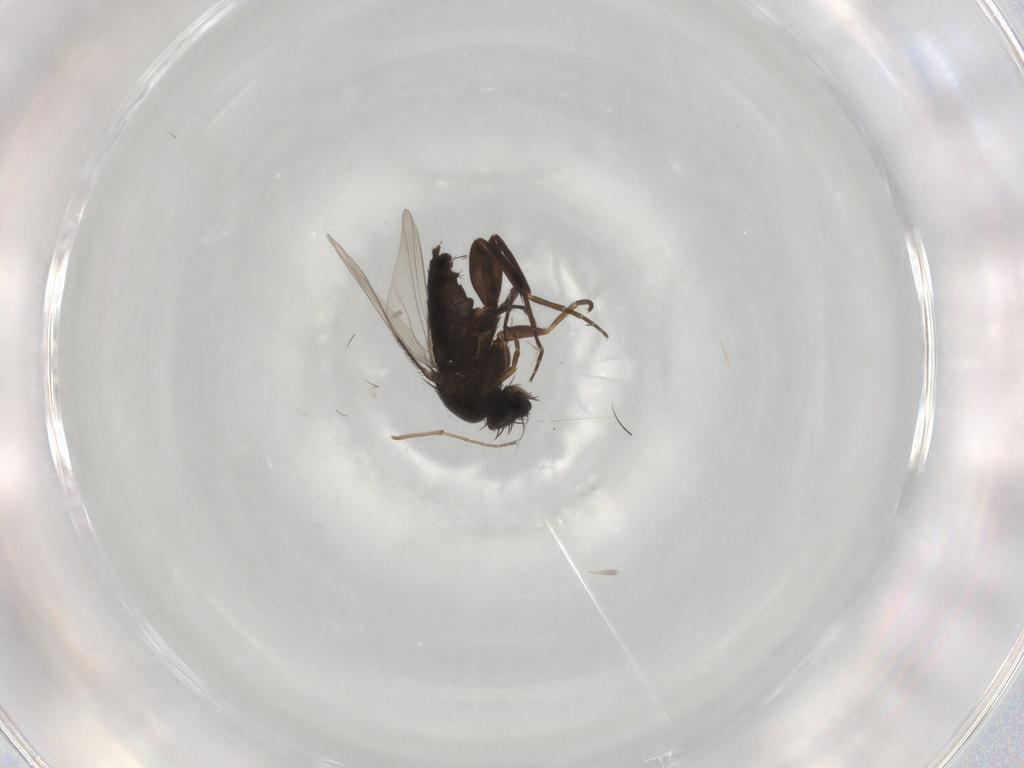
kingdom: Animalia
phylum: Arthropoda
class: Insecta
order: Diptera
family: Phoridae
